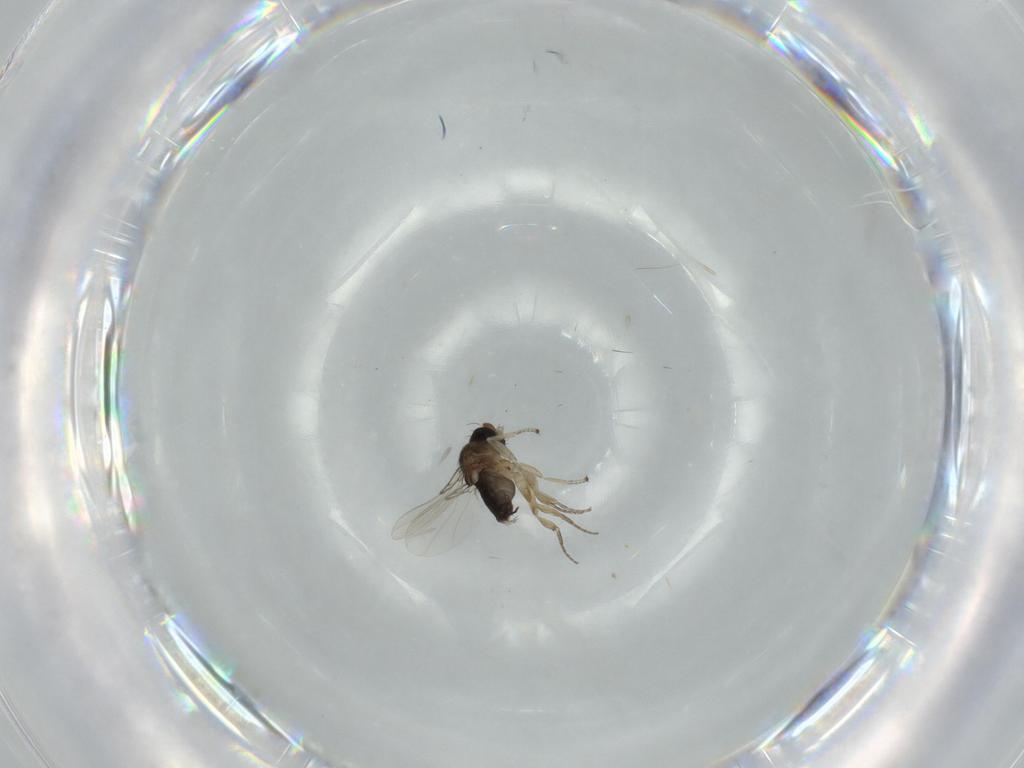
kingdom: Animalia
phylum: Arthropoda
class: Insecta
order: Diptera
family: Phoridae
